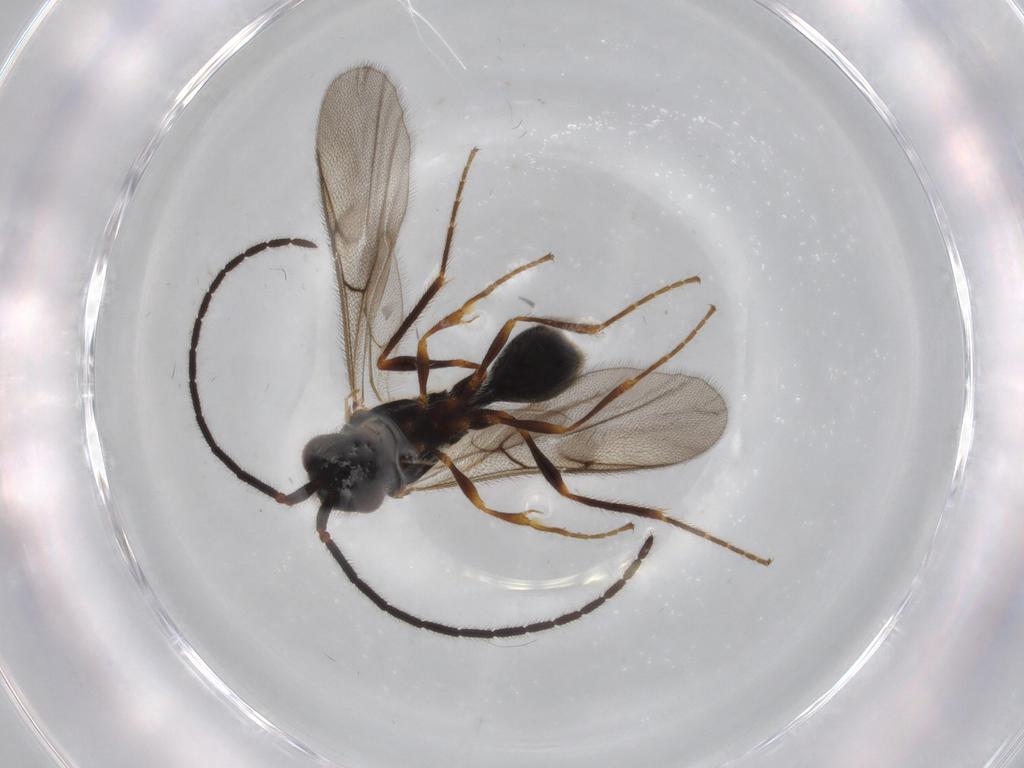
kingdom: Animalia
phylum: Arthropoda
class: Insecta
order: Hymenoptera
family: Diapriidae
